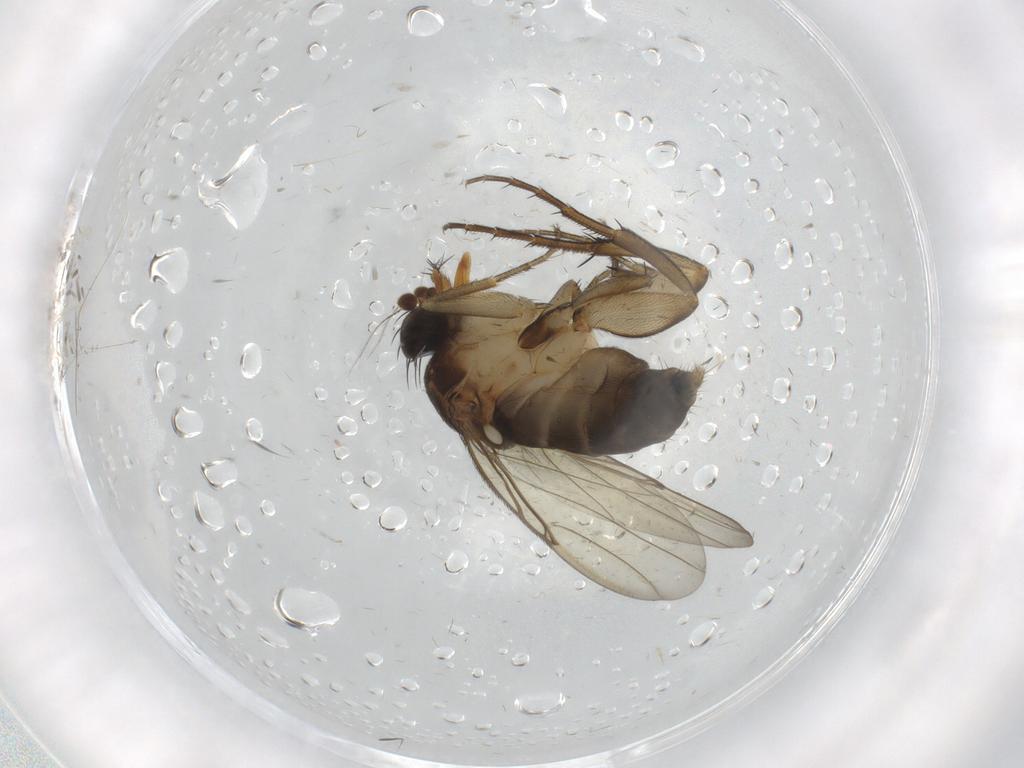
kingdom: Animalia
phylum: Arthropoda
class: Insecta
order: Diptera
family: Phoridae
